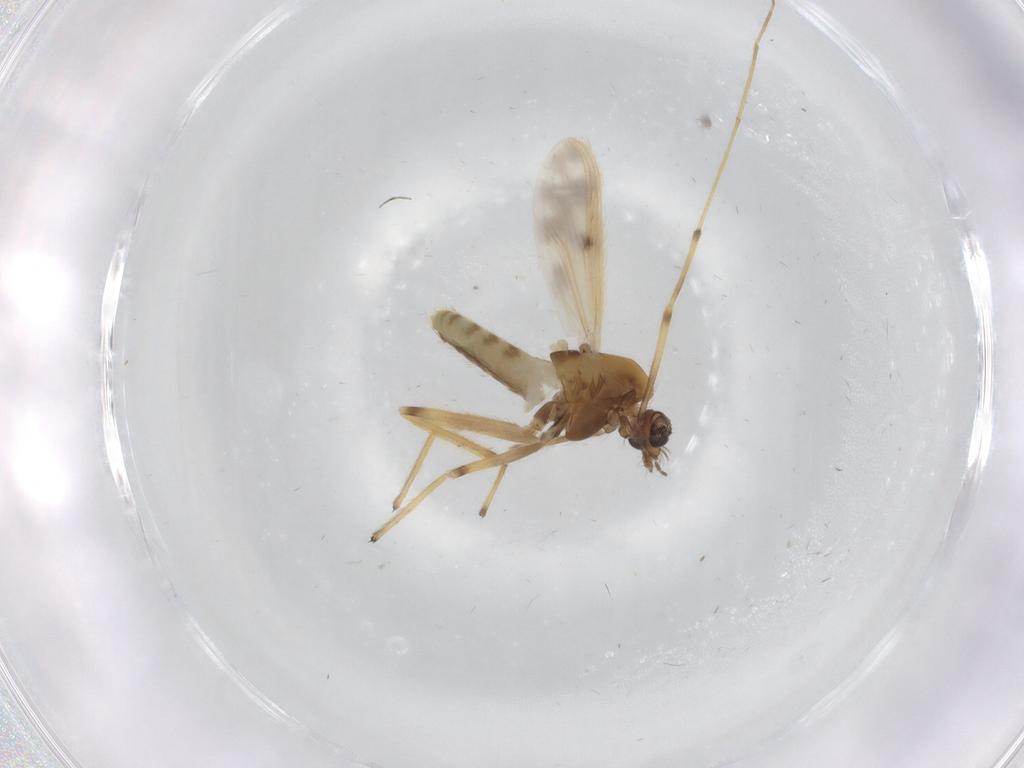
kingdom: Animalia
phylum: Arthropoda
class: Insecta
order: Diptera
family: Chironomidae
